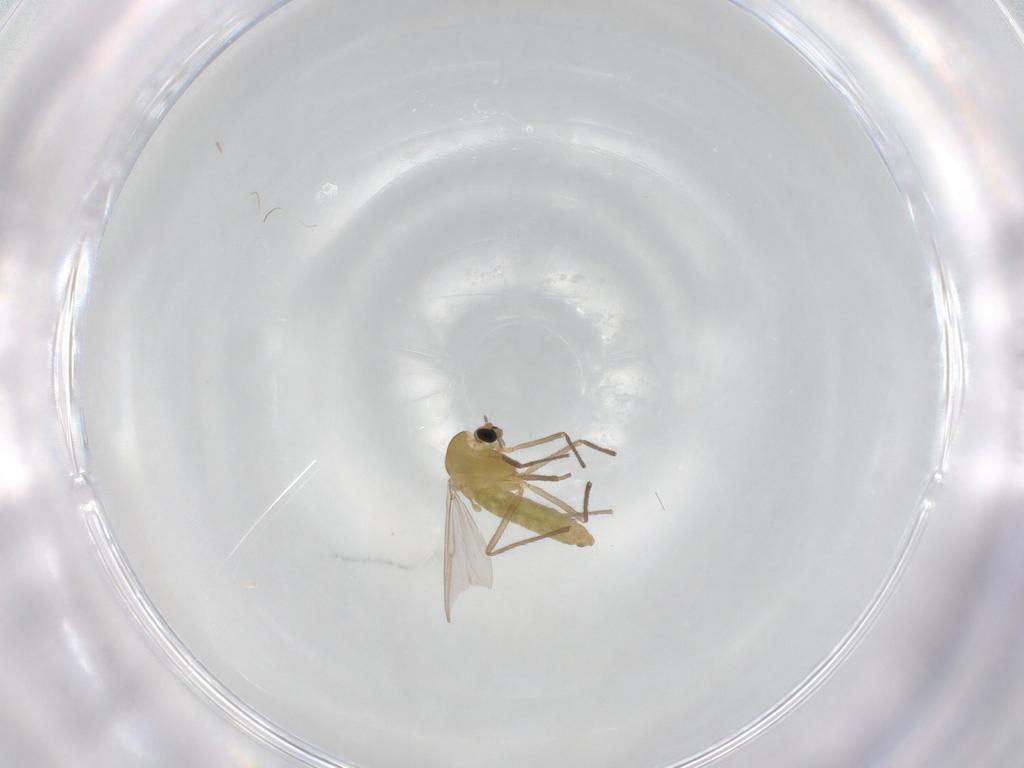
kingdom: Animalia
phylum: Arthropoda
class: Insecta
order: Diptera
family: Chironomidae
